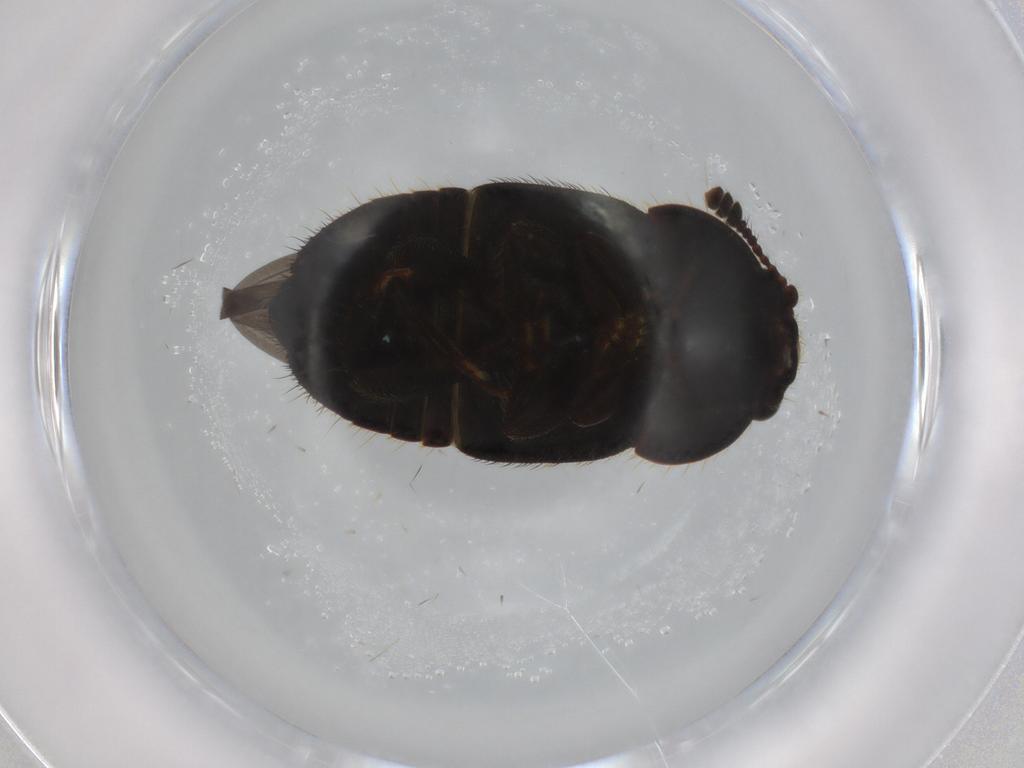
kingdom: Animalia
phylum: Arthropoda
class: Insecta
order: Coleoptera
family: Nitidulidae
